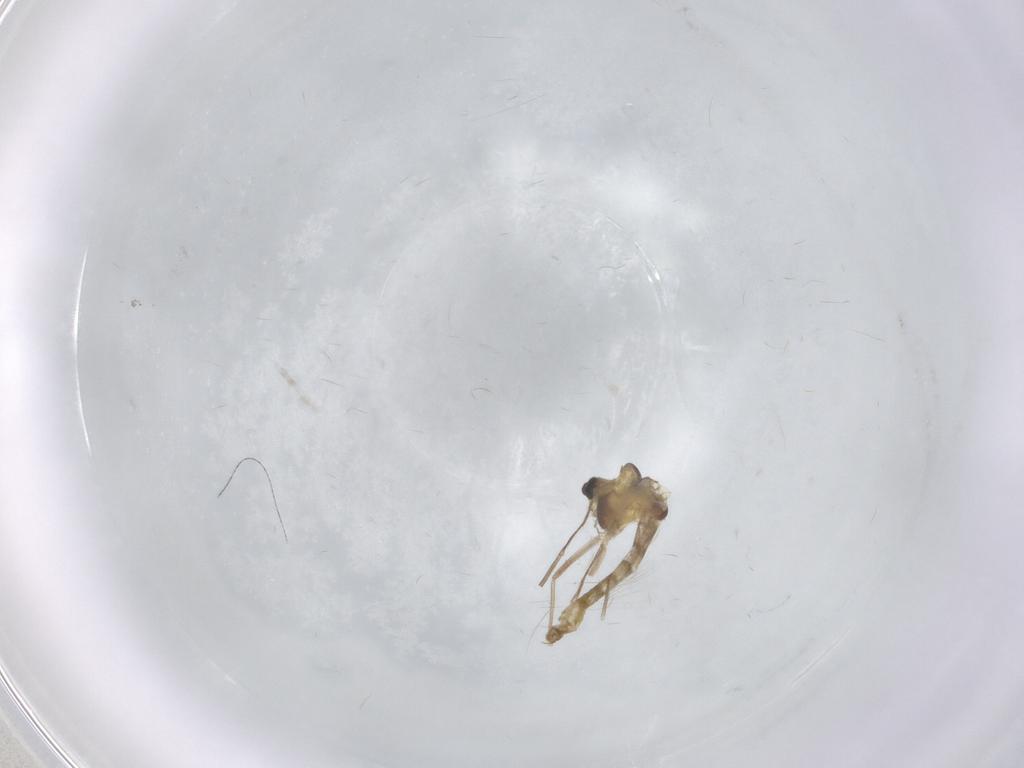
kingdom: Animalia
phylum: Arthropoda
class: Insecta
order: Diptera
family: Chironomidae
